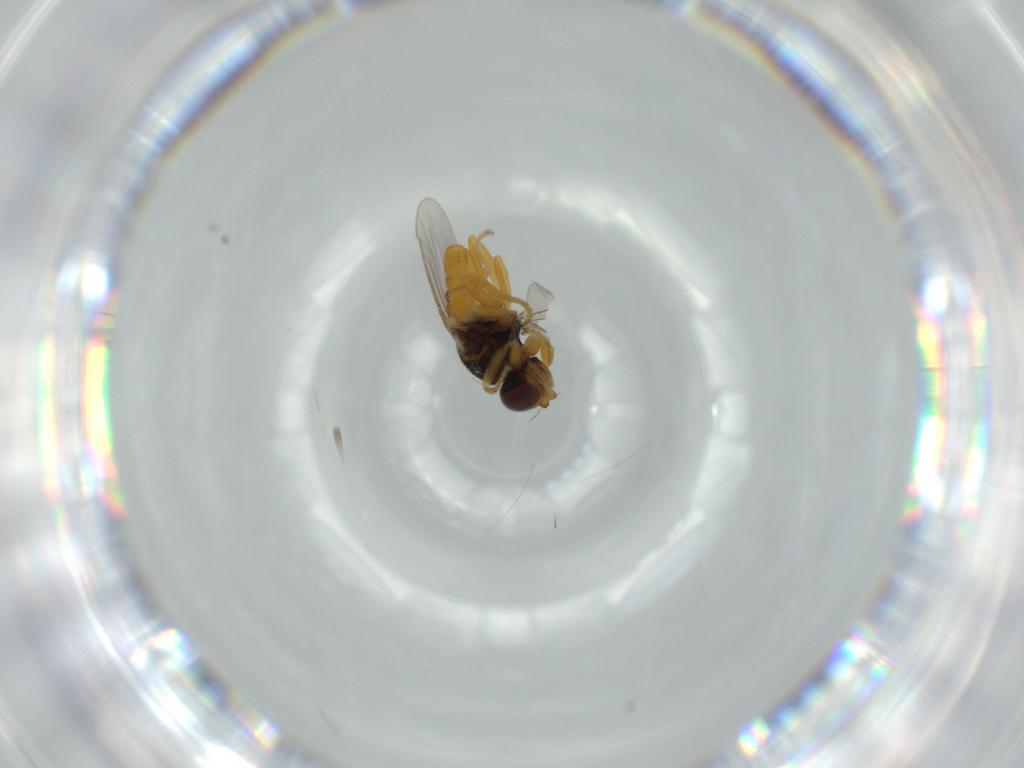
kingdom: Animalia
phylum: Arthropoda
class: Insecta
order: Diptera
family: Chloropidae
